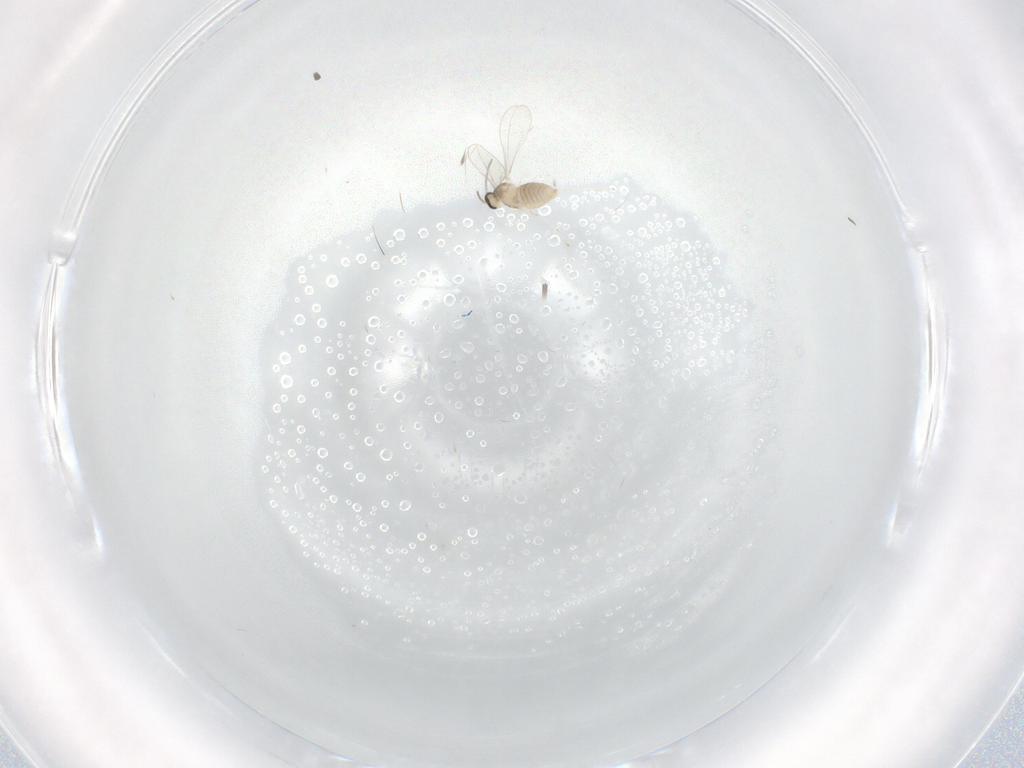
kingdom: Animalia
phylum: Arthropoda
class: Insecta
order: Diptera
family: Cecidomyiidae
